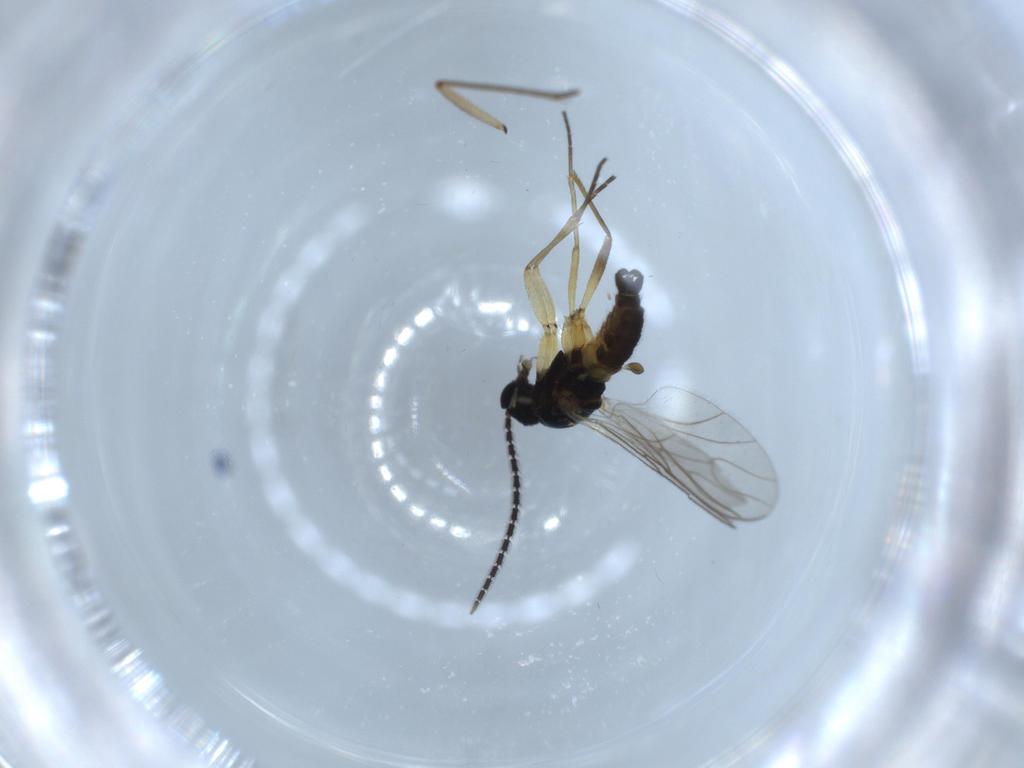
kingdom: Animalia
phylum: Arthropoda
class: Insecta
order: Diptera
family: Sciaridae
